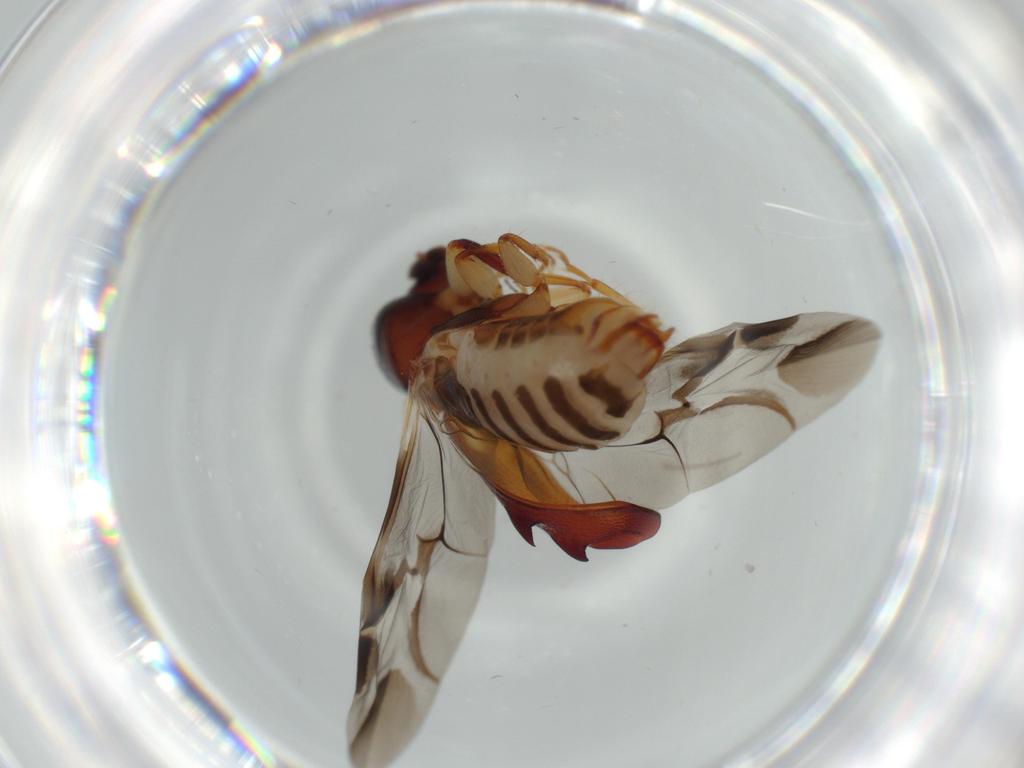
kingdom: Animalia
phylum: Arthropoda
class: Insecta
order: Coleoptera
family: Bostrichidae
